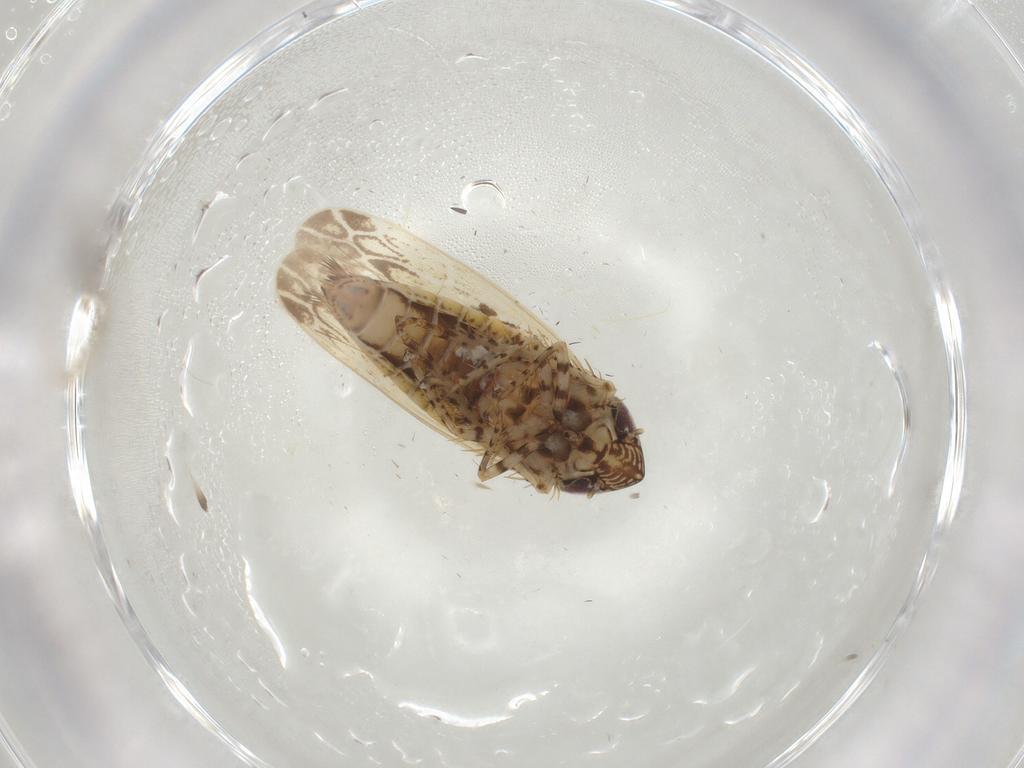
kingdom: Animalia
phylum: Arthropoda
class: Insecta
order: Hemiptera
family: Cicadellidae
